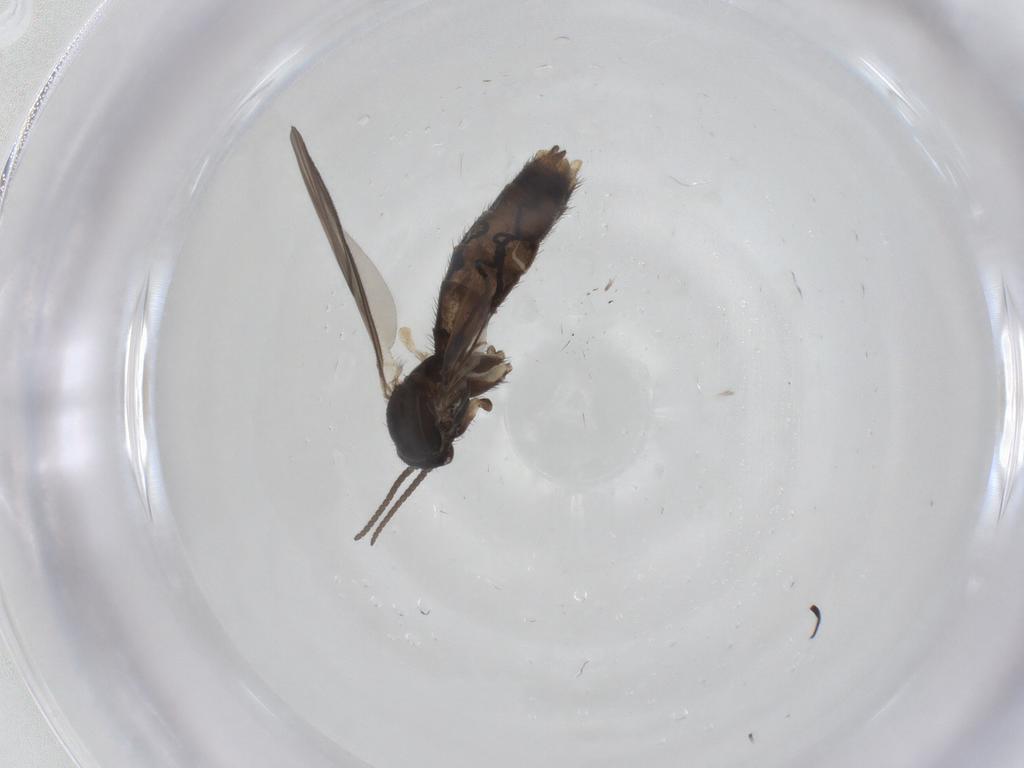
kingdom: Animalia
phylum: Arthropoda
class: Insecta
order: Diptera
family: Keroplatidae
